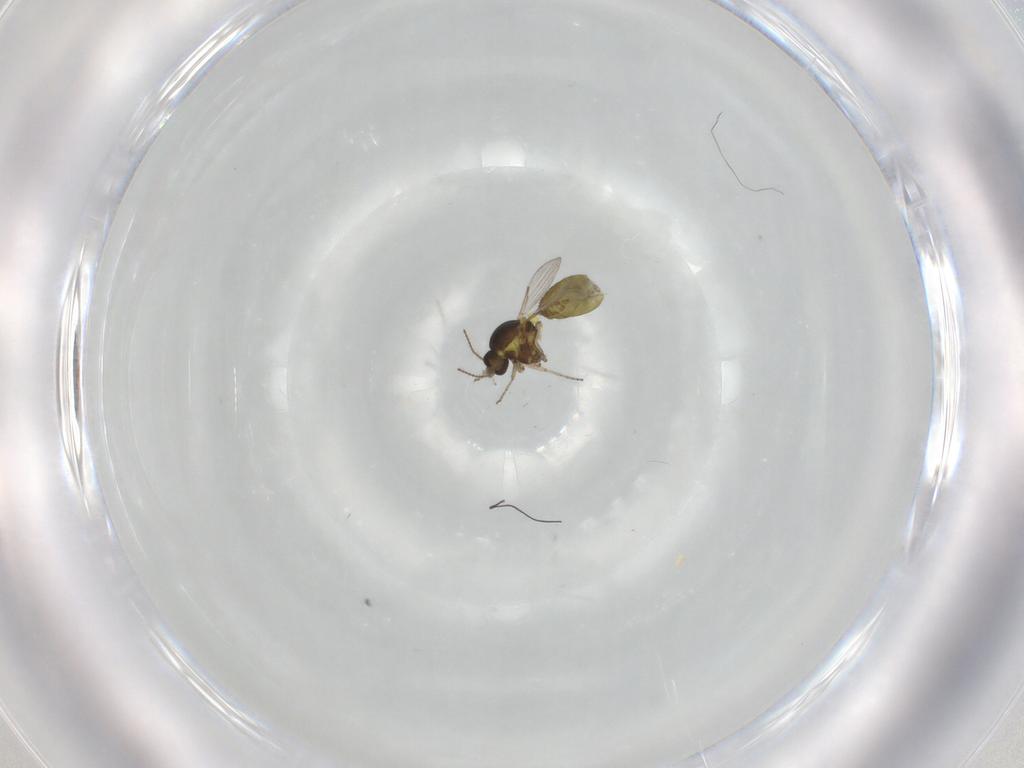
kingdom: Animalia
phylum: Arthropoda
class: Insecta
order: Diptera
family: Ceratopogonidae
